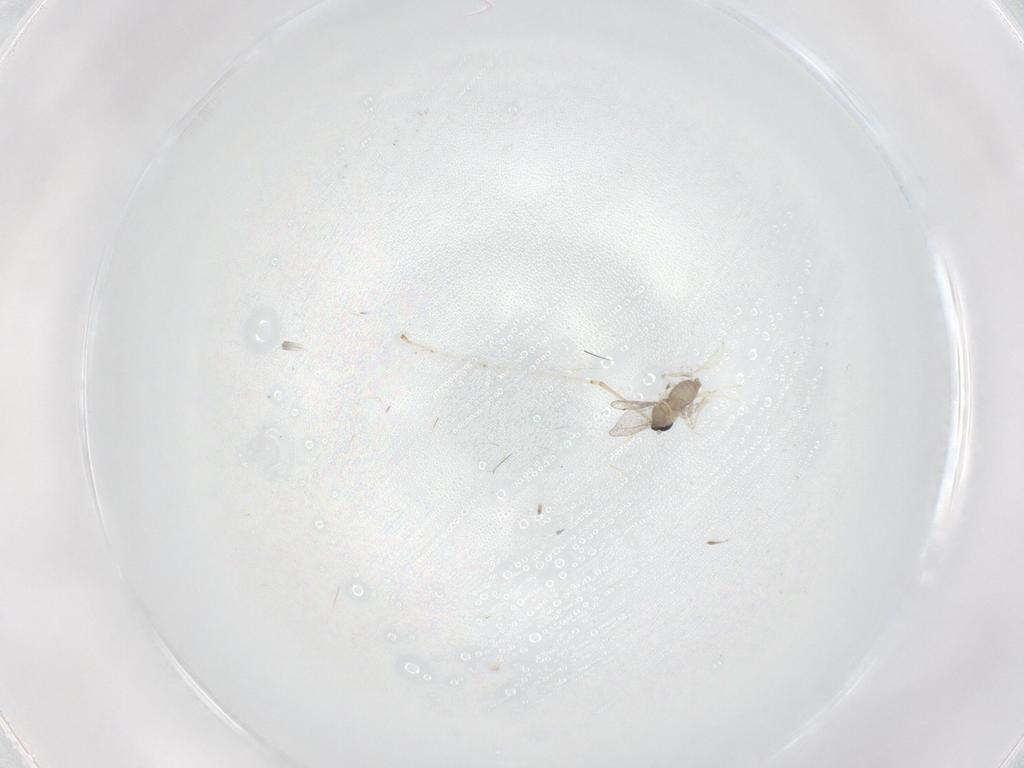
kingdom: Animalia
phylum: Arthropoda
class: Insecta
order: Diptera
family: Cecidomyiidae
